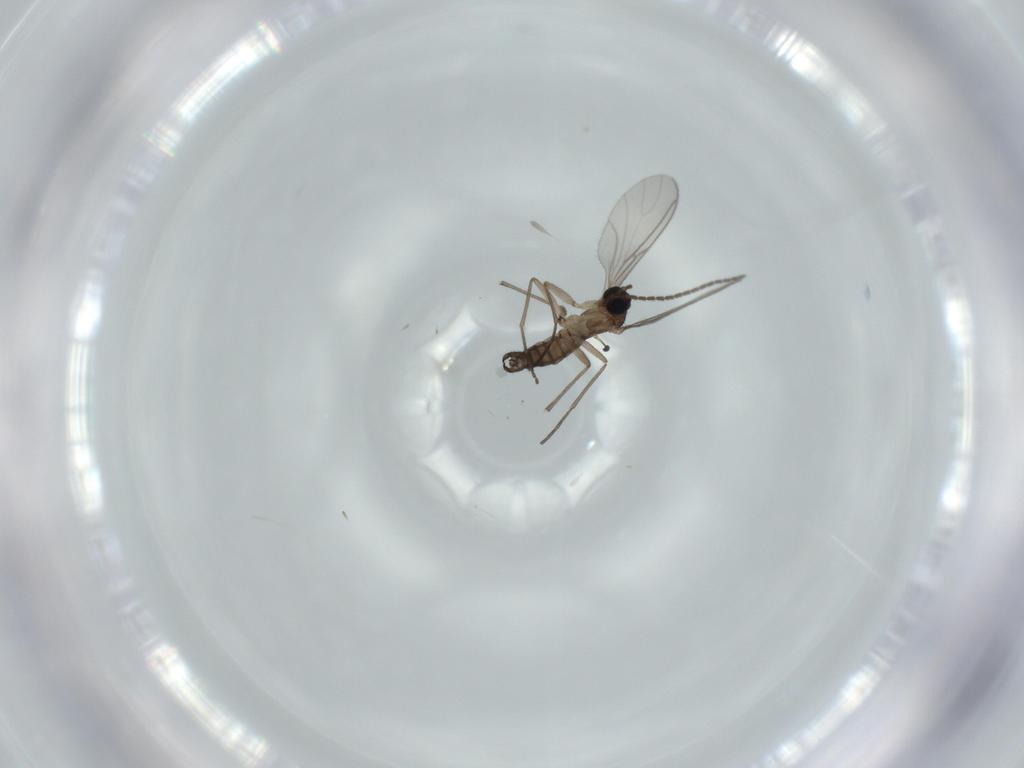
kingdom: Animalia
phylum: Arthropoda
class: Insecta
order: Diptera
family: Sciaridae
